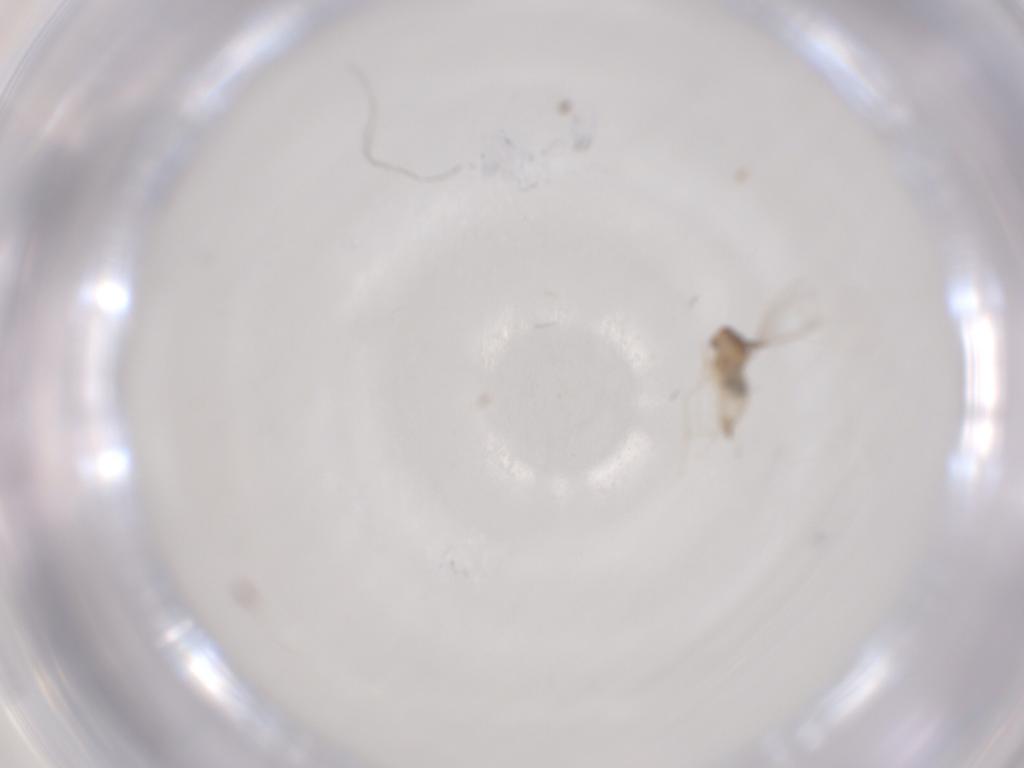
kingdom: Animalia
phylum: Arthropoda
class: Insecta
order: Diptera
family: Cecidomyiidae
